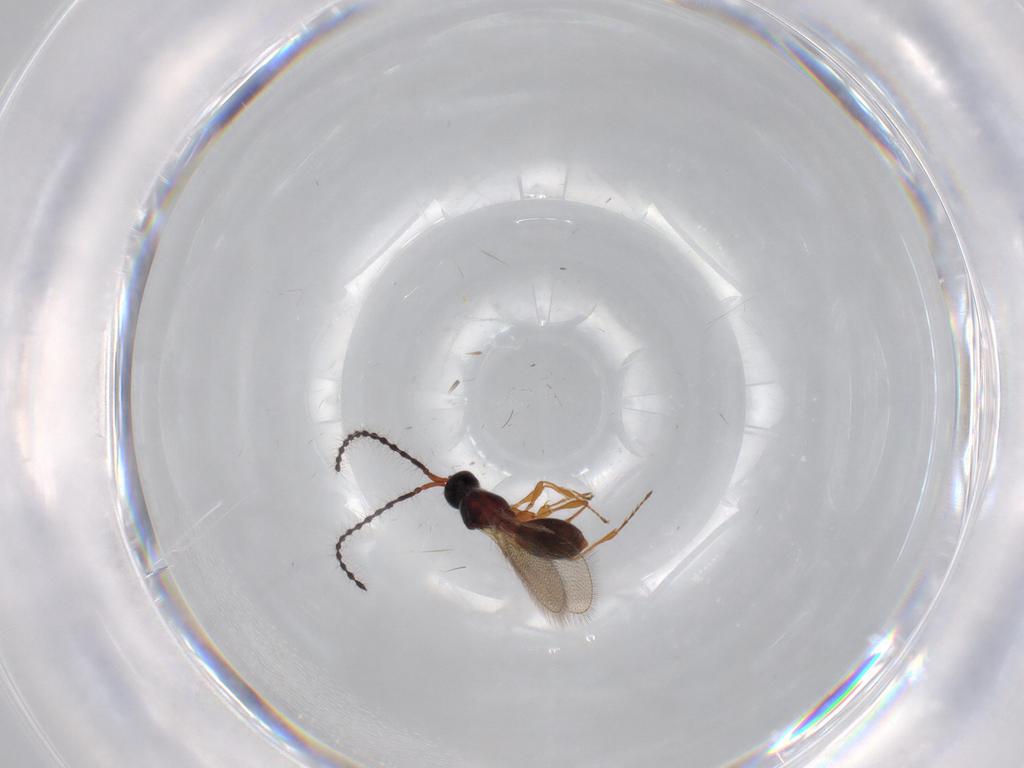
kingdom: Animalia
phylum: Arthropoda
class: Insecta
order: Hymenoptera
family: Diapriidae
